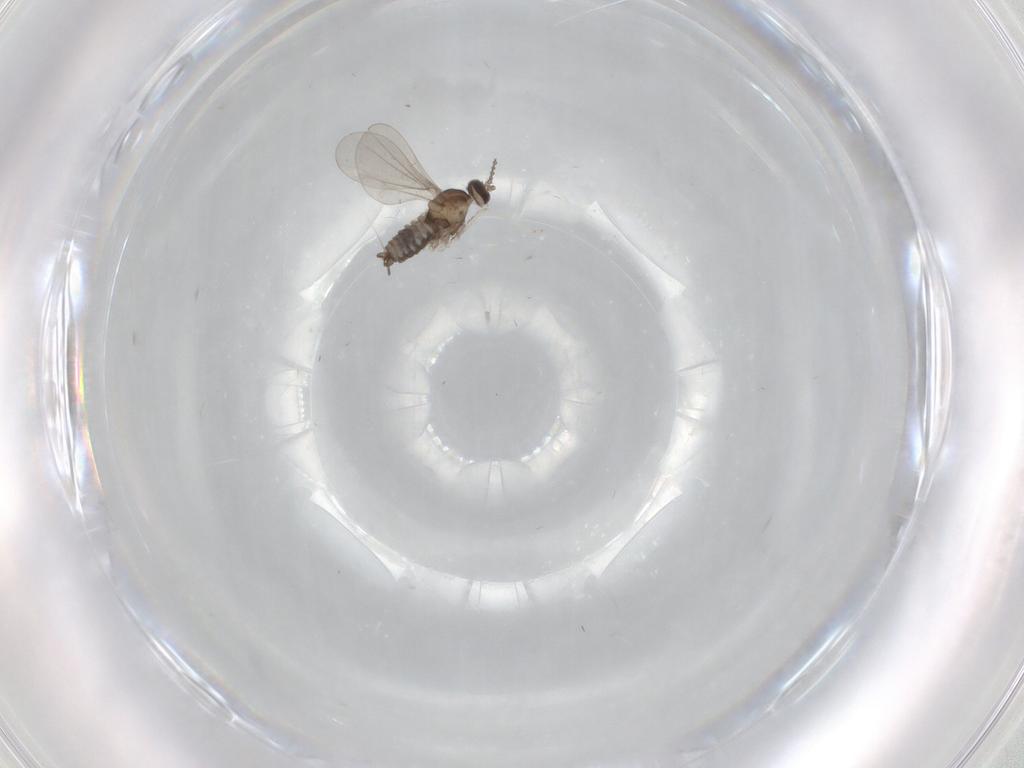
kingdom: Animalia
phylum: Arthropoda
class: Insecta
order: Diptera
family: Cecidomyiidae
